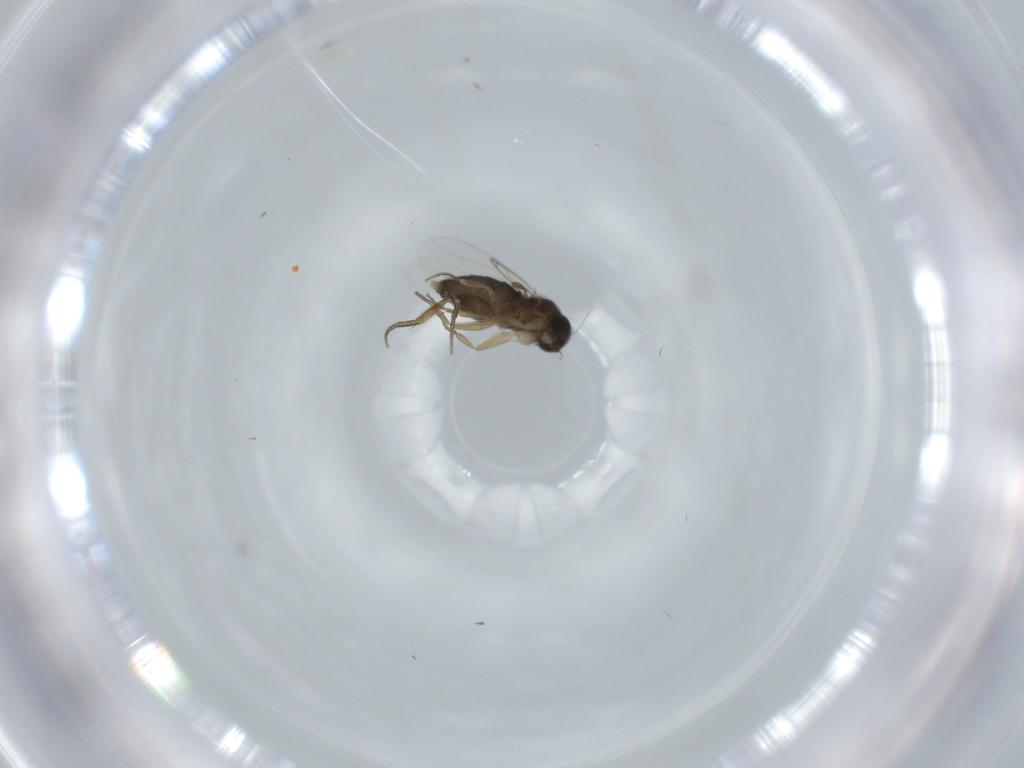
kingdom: Animalia
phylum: Arthropoda
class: Insecta
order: Diptera
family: Phoridae
